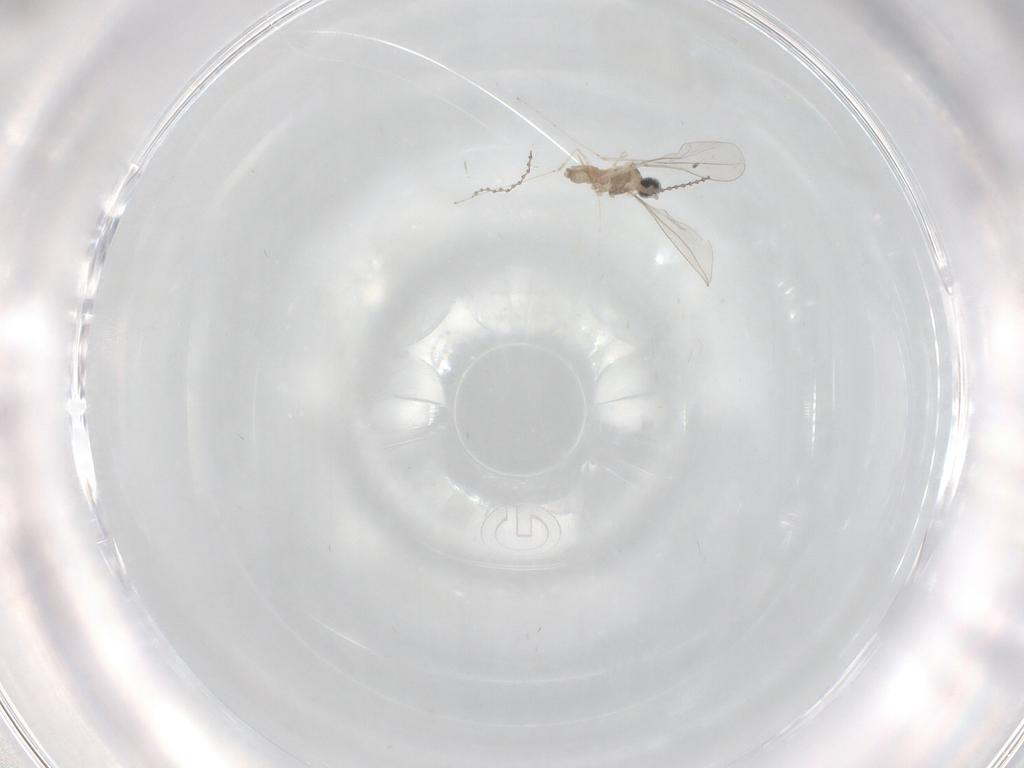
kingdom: Animalia
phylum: Arthropoda
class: Insecta
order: Diptera
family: Cecidomyiidae
